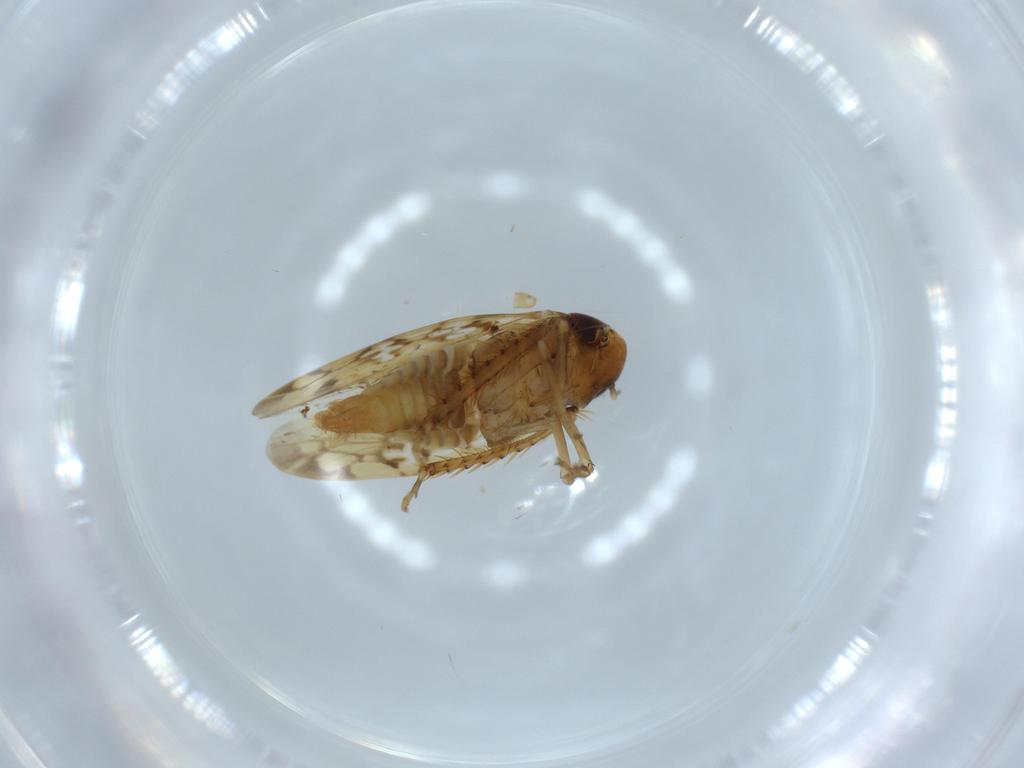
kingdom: Animalia
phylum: Arthropoda
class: Insecta
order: Hemiptera
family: Cicadellidae
